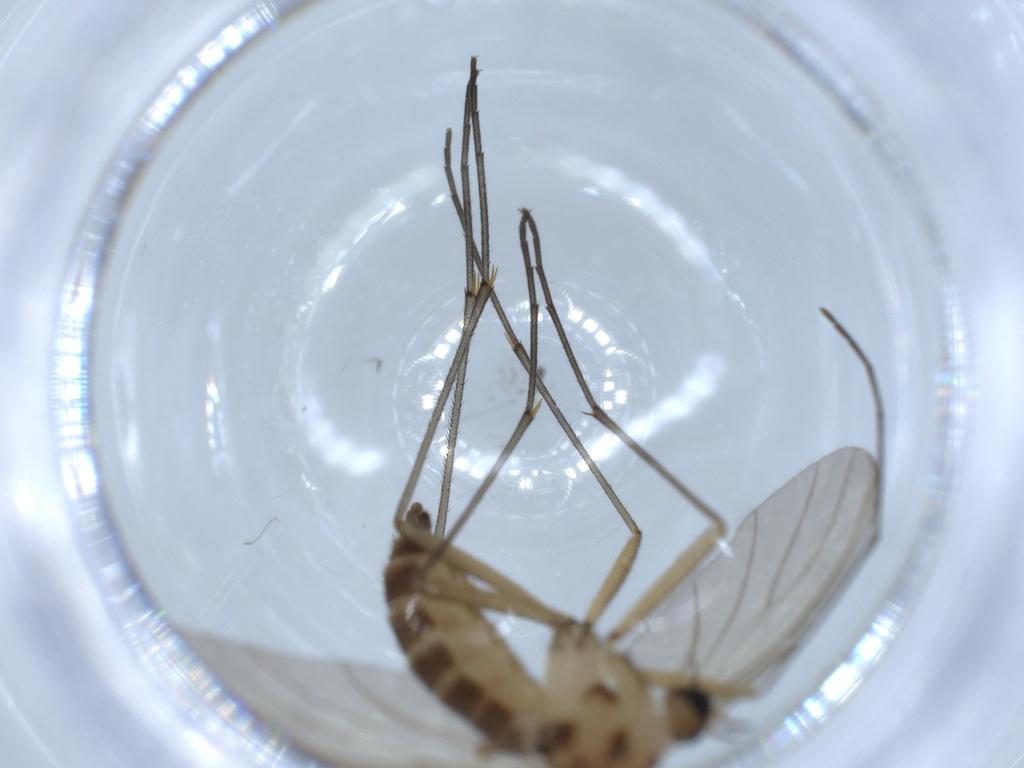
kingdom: Animalia
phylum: Arthropoda
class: Insecta
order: Diptera
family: Sciaridae
